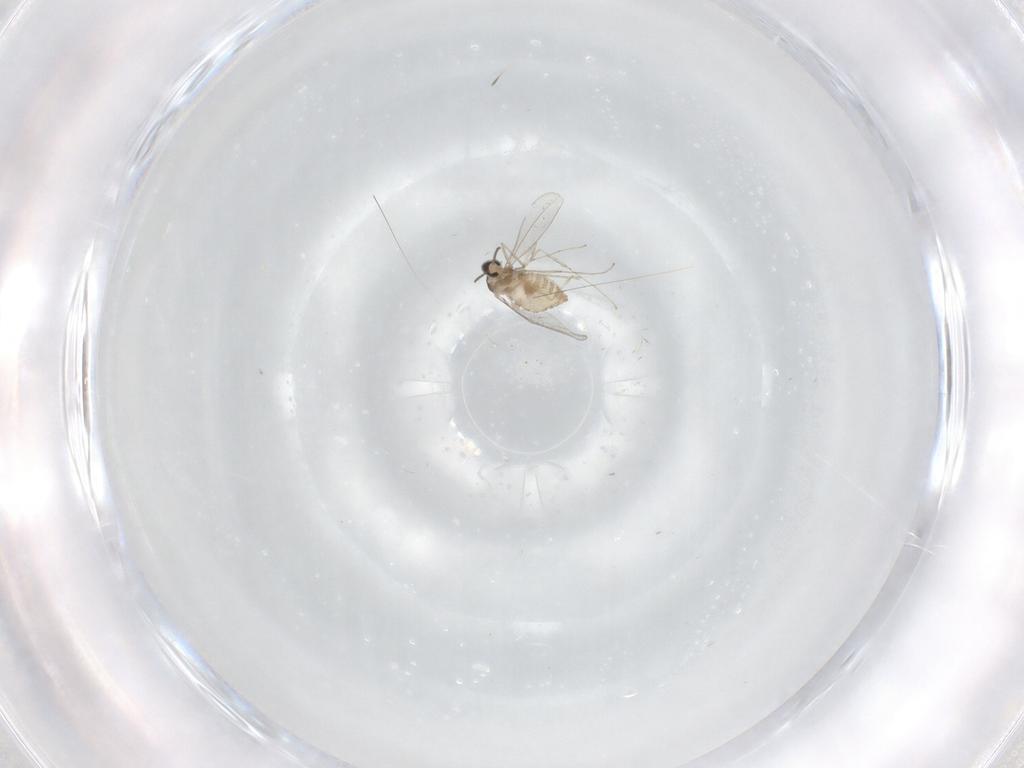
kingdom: Animalia
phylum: Arthropoda
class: Insecta
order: Diptera
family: Cecidomyiidae
